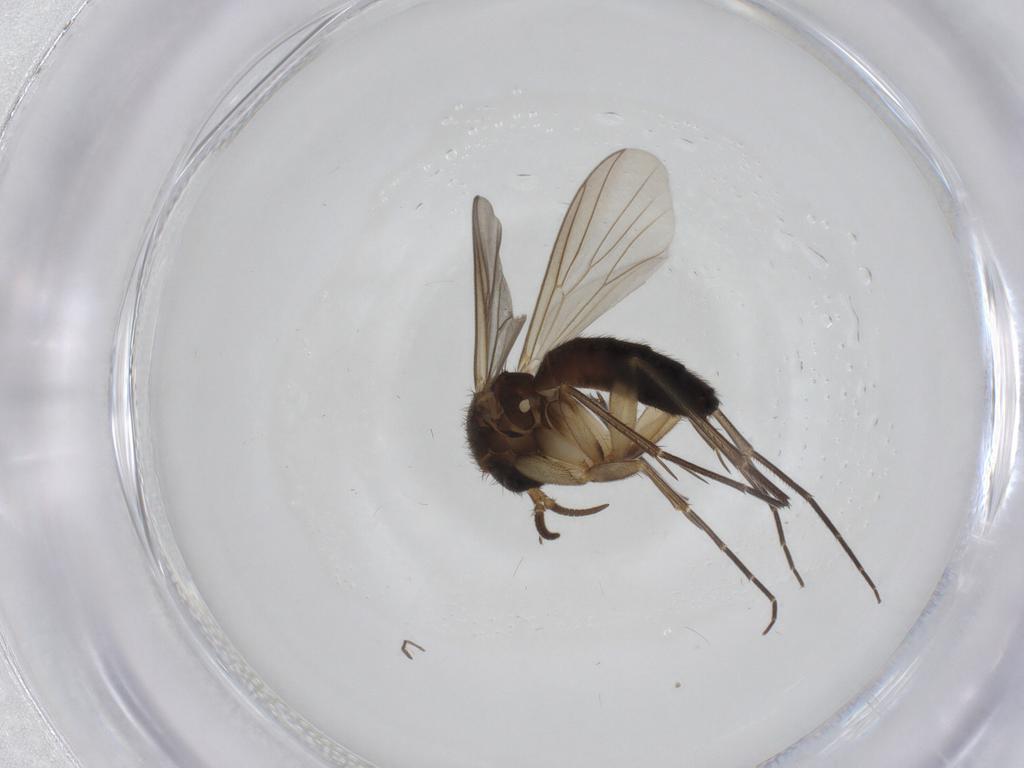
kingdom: Animalia
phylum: Arthropoda
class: Insecta
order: Diptera
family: Mycetophilidae
